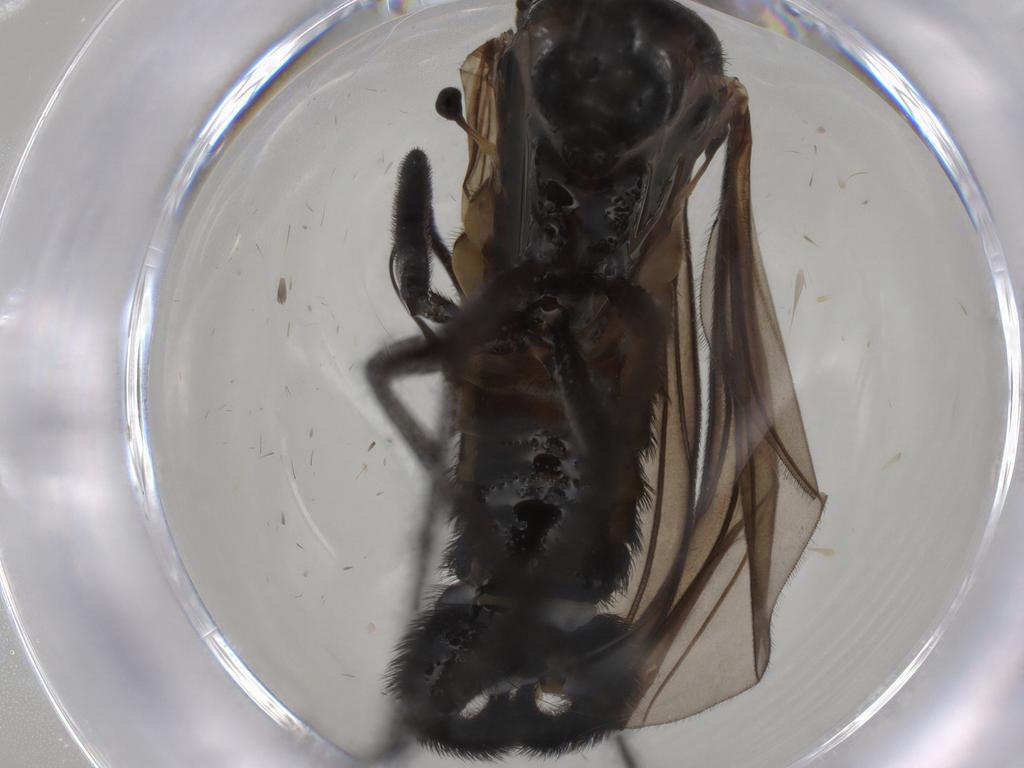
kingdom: Animalia
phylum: Arthropoda
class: Insecta
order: Diptera
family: Sciaridae
